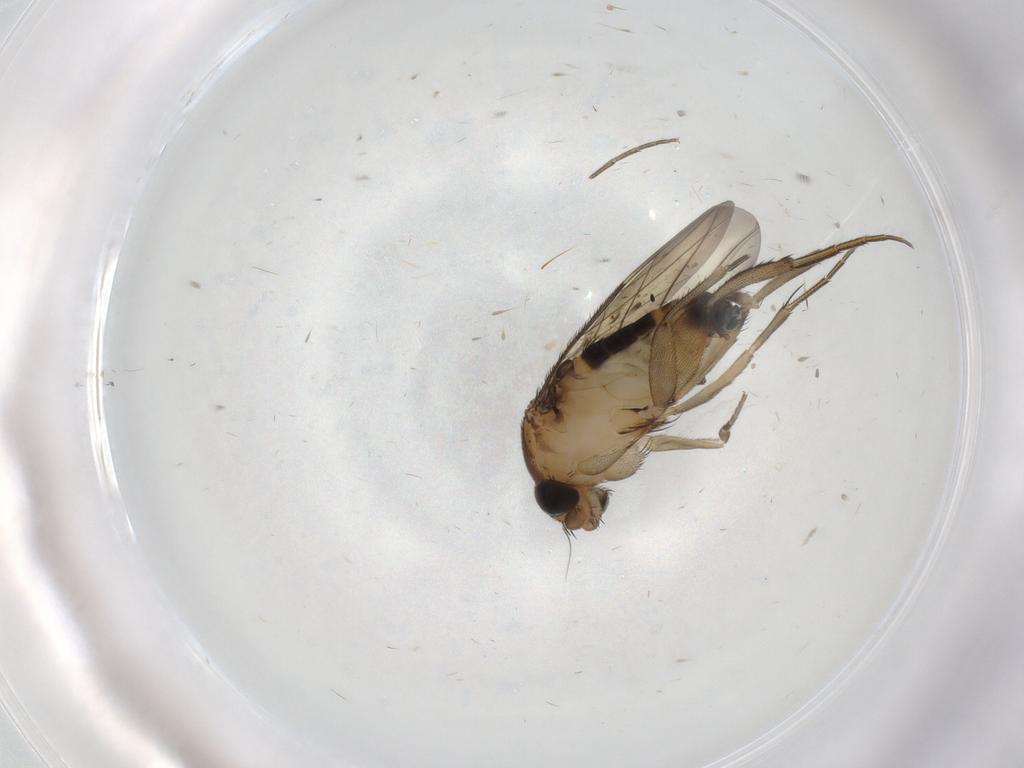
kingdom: Animalia
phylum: Arthropoda
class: Insecta
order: Diptera
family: Phoridae
